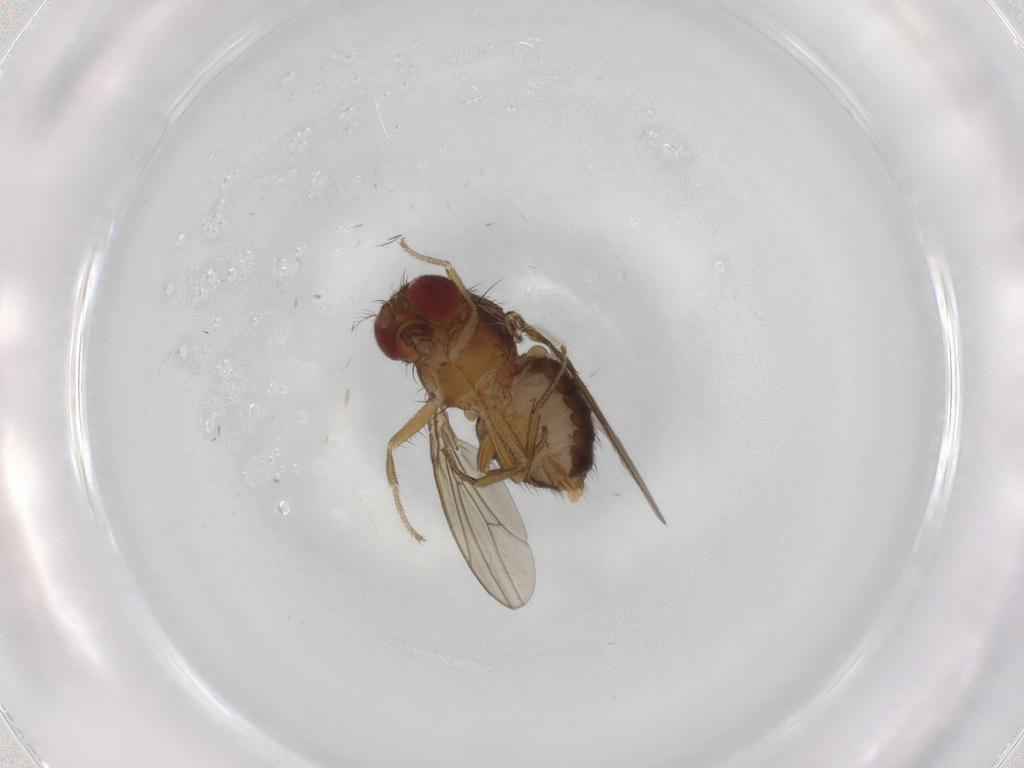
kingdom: Animalia
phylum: Arthropoda
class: Insecta
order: Diptera
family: Drosophilidae
